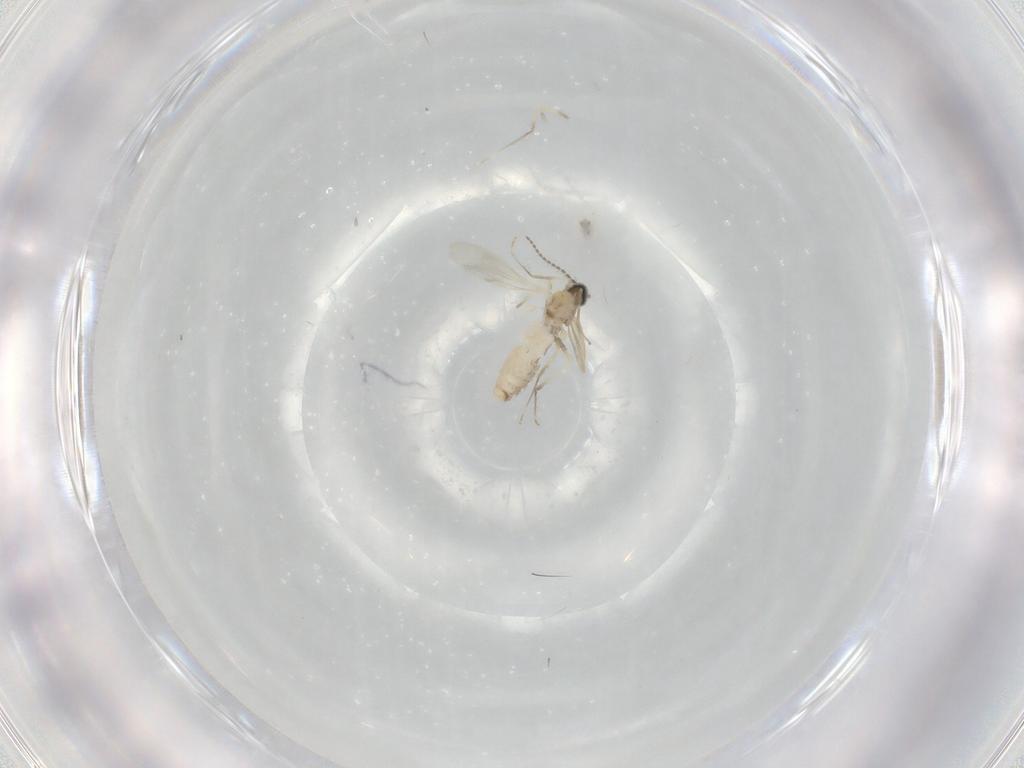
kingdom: Animalia
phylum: Arthropoda
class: Insecta
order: Diptera
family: Cecidomyiidae
